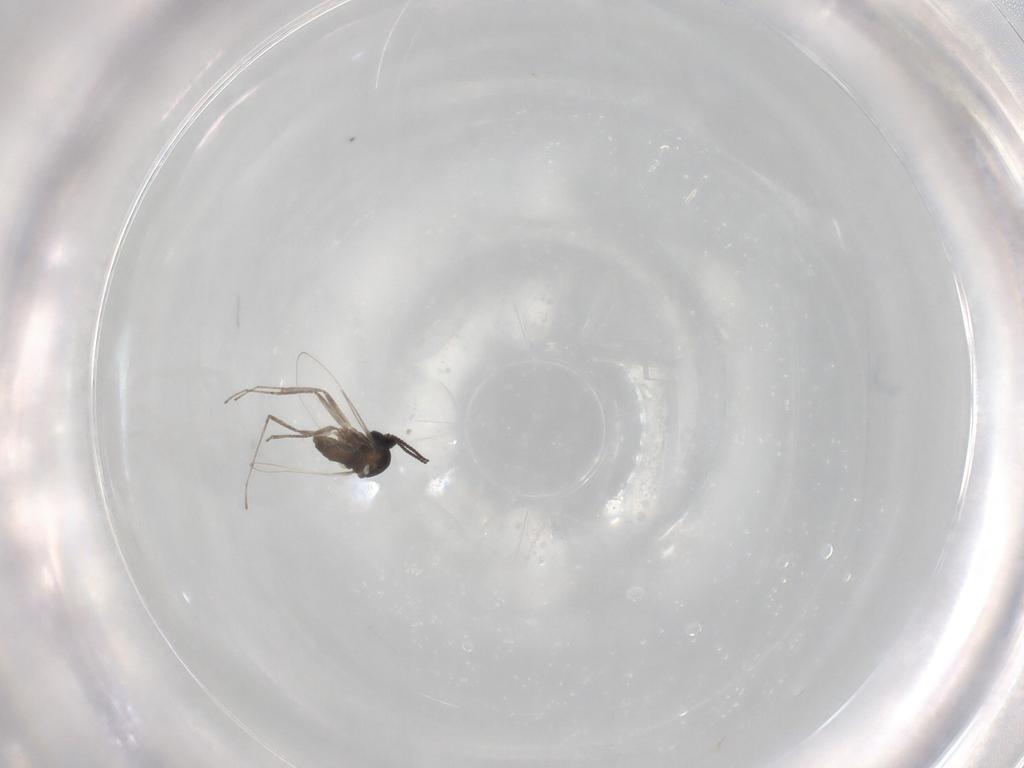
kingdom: Animalia
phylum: Arthropoda
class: Insecta
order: Diptera
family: Cecidomyiidae
